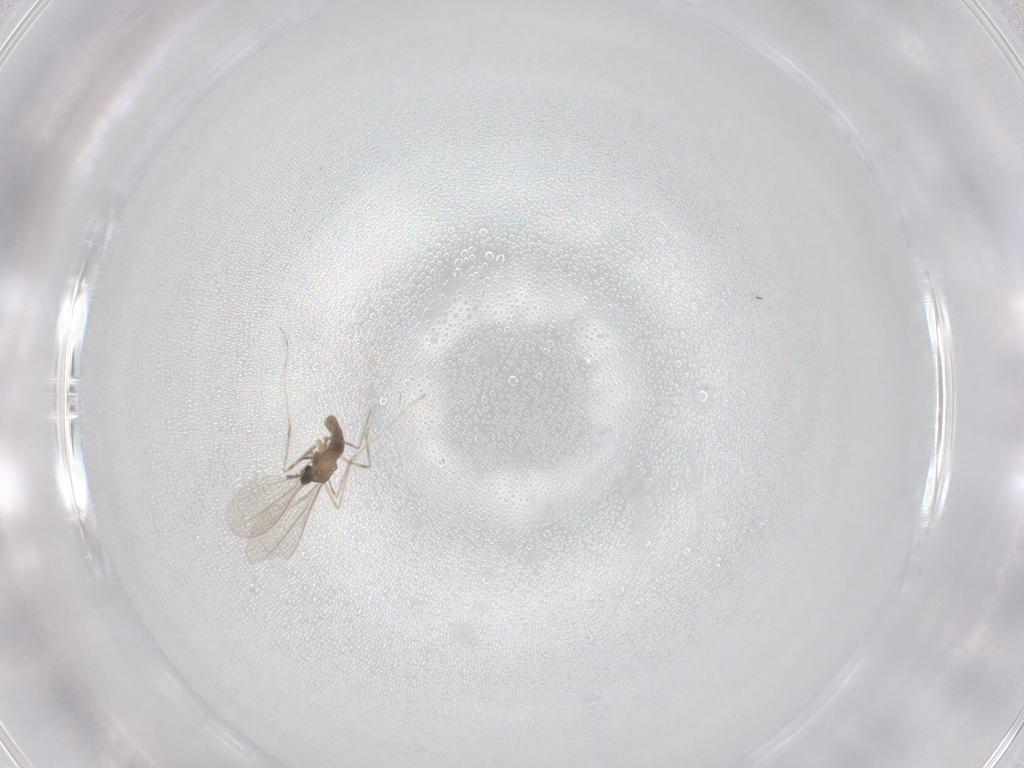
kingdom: Animalia
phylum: Arthropoda
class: Insecta
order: Diptera
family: Cecidomyiidae
